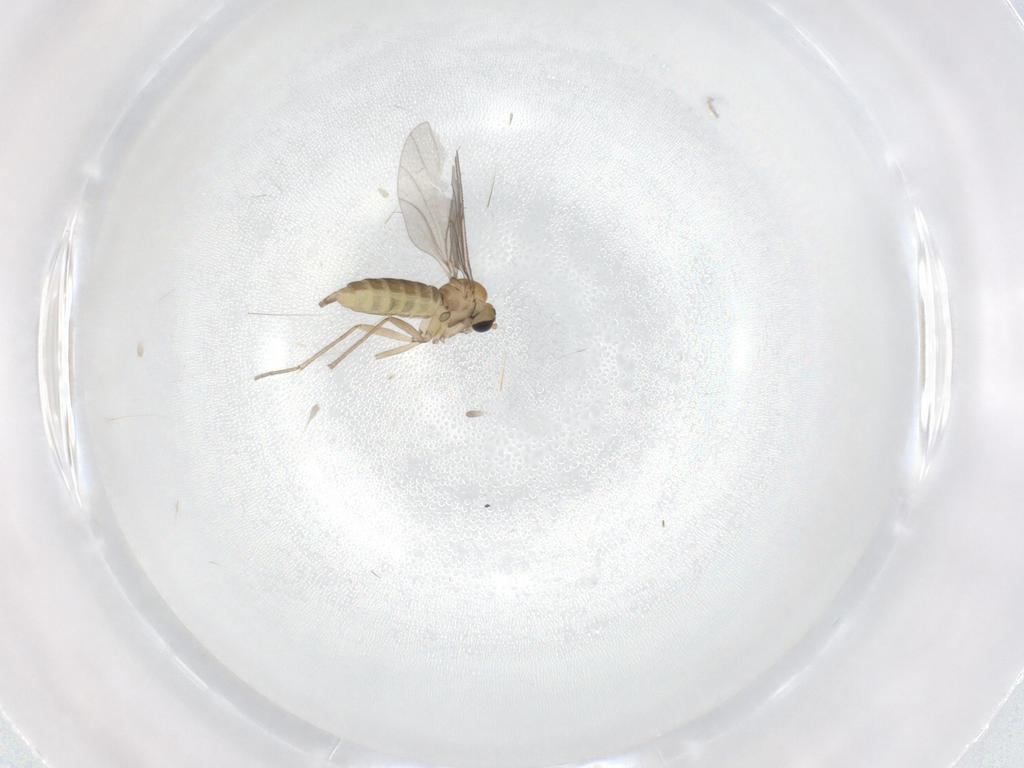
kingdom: Animalia
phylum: Arthropoda
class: Insecta
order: Diptera
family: Sciaridae
